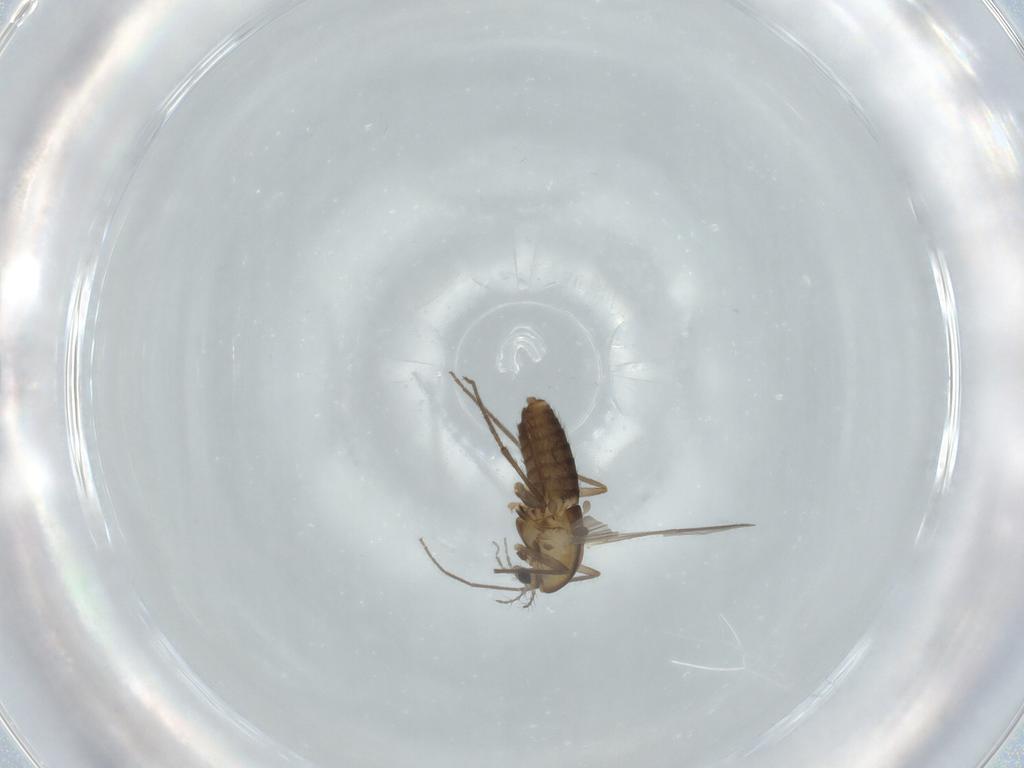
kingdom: Animalia
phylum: Arthropoda
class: Insecta
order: Diptera
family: Chironomidae
